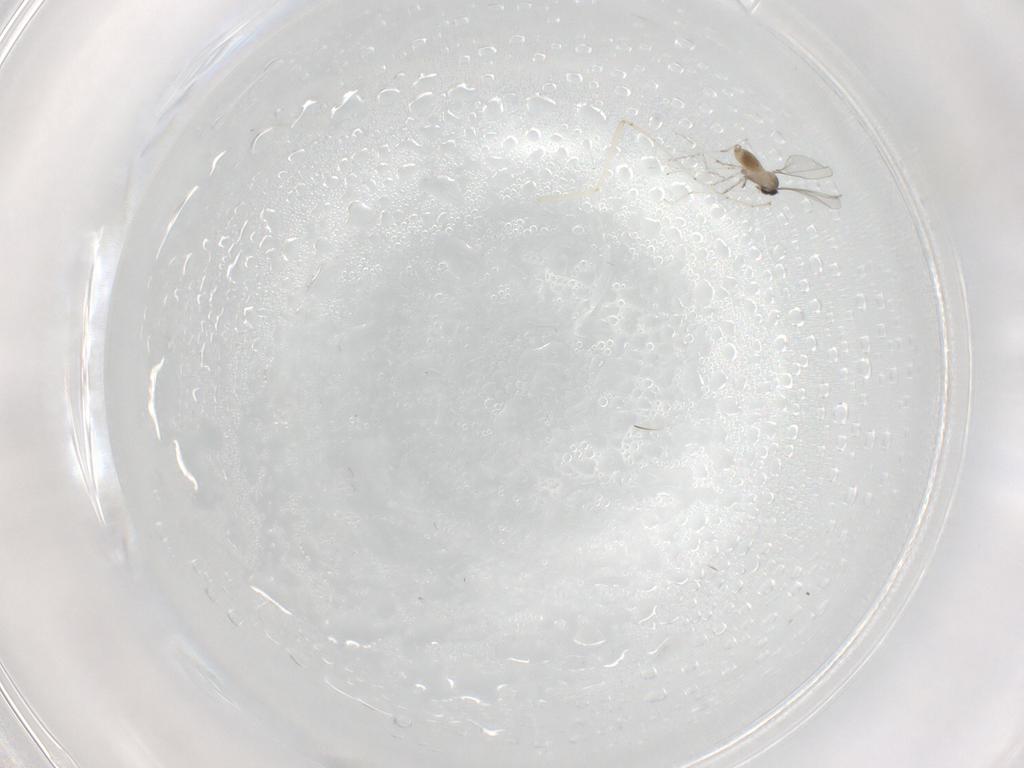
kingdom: Animalia
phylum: Arthropoda
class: Insecta
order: Diptera
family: Cecidomyiidae
